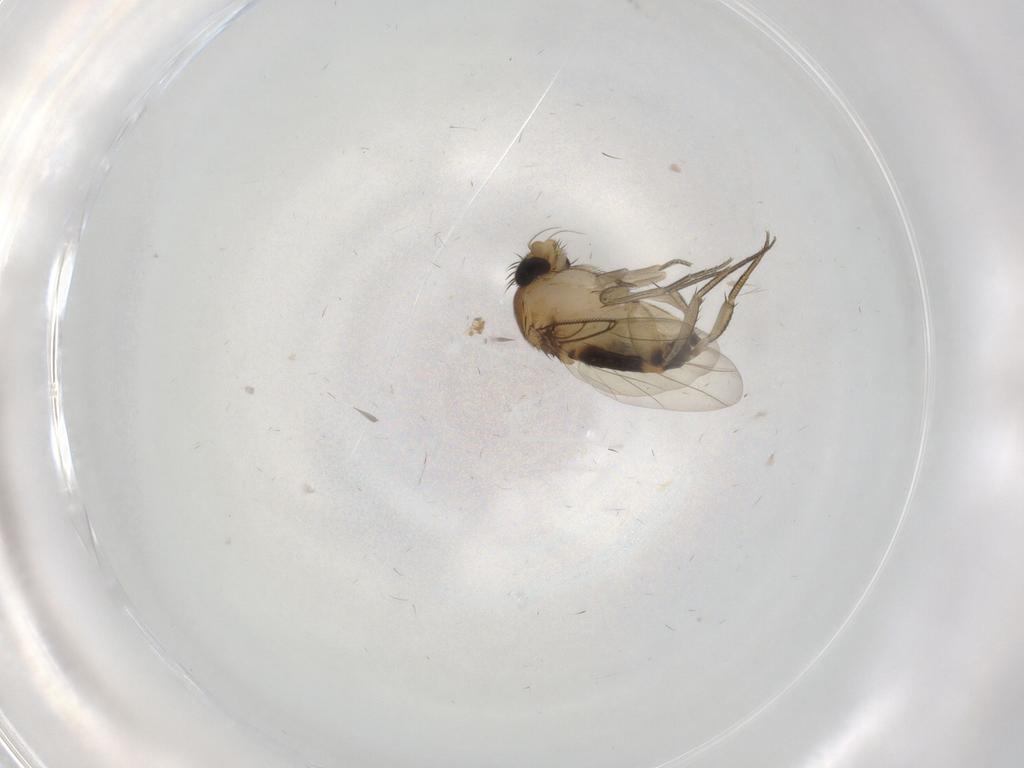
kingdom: Animalia
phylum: Arthropoda
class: Insecta
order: Diptera
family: Phoridae
